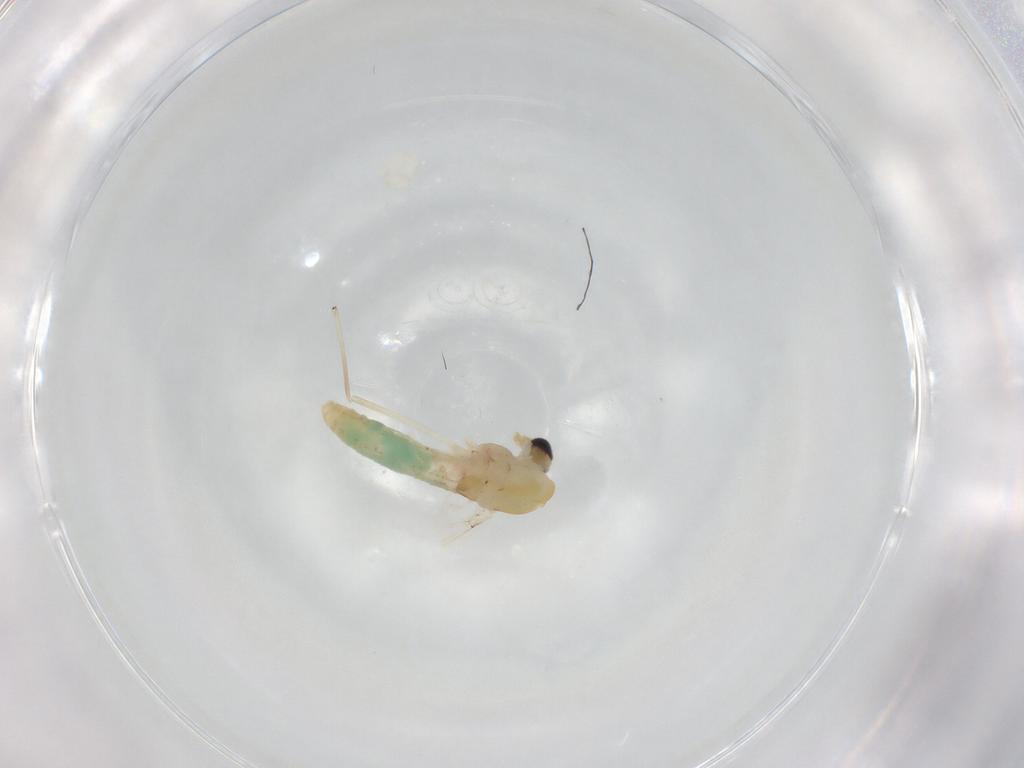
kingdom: Animalia
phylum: Arthropoda
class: Insecta
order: Diptera
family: Chironomidae
